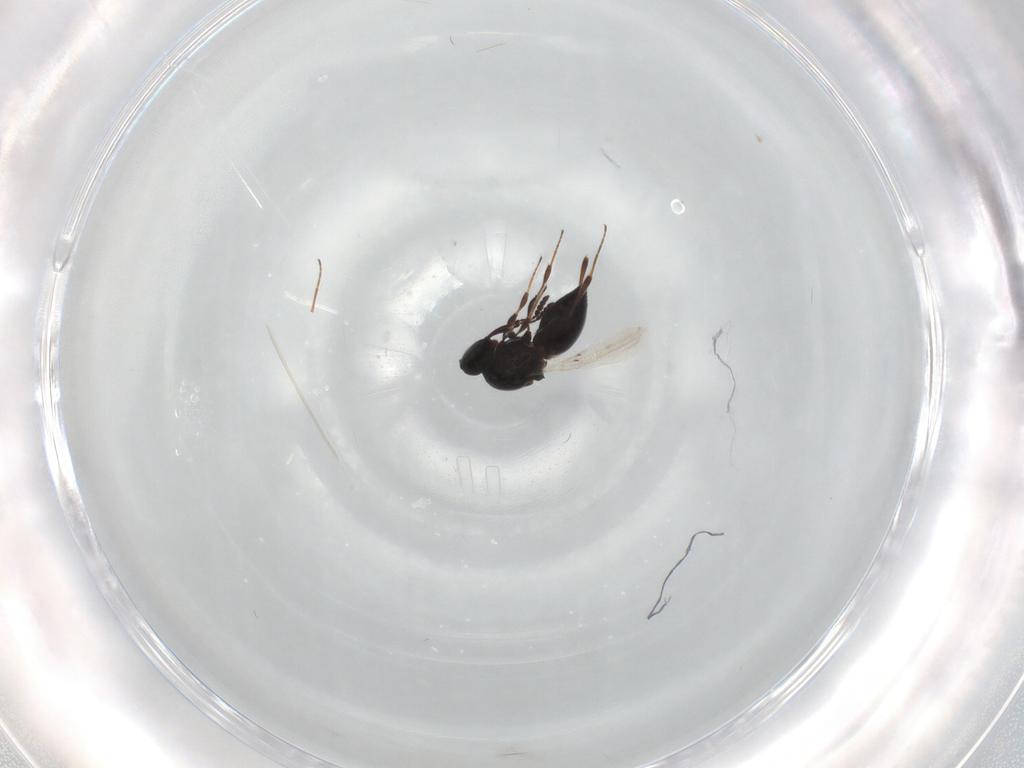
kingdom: Animalia
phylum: Arthropoda
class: Insecta
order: Hymenoptera
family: Platygastridae
